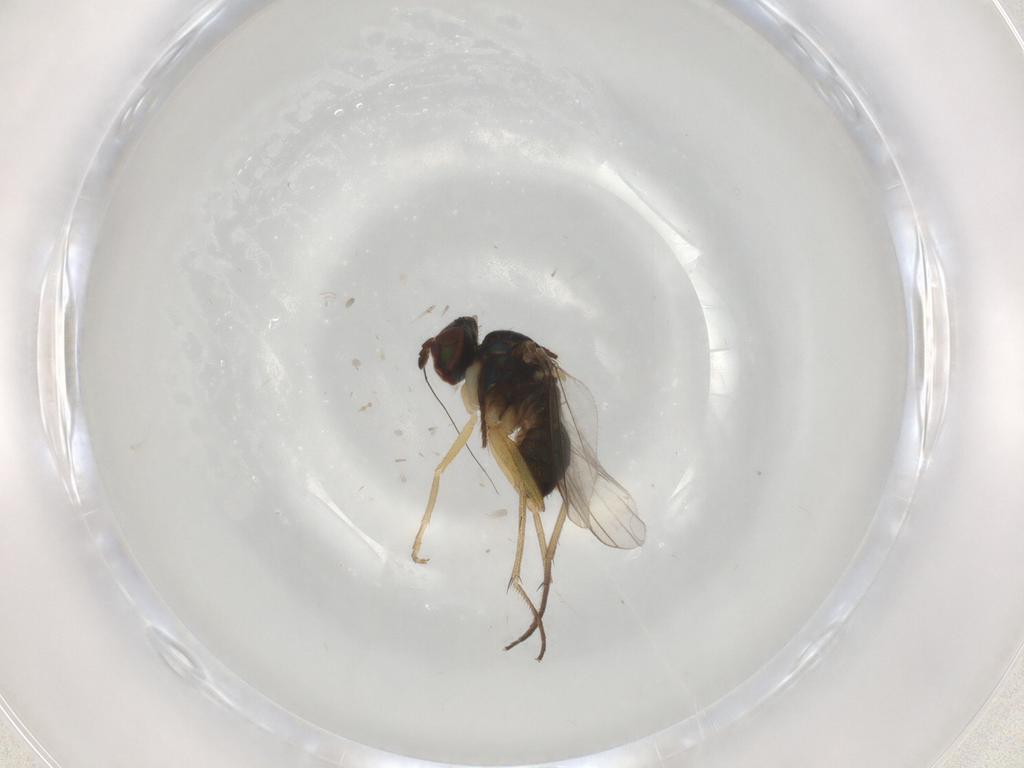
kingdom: Animalia
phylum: Arthropoda
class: Insecta
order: Diptera
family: Dolichopodidae
